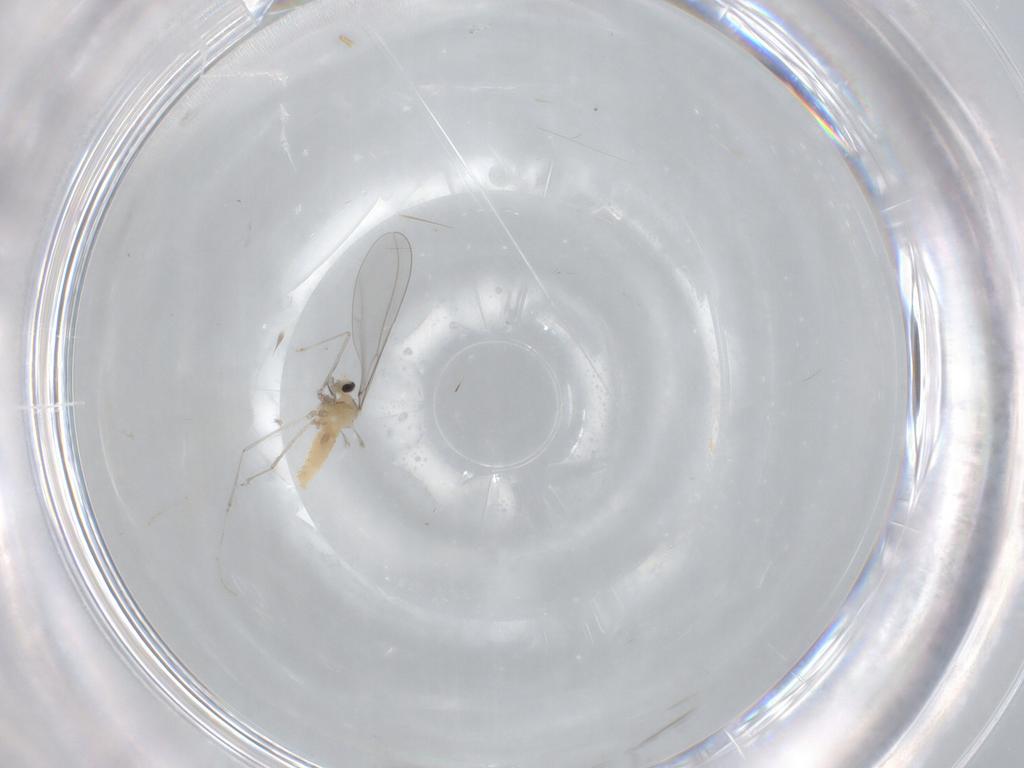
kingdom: Animalia
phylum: Arthropoda
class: Insecta
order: Diptera
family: Cecidomyiidae
